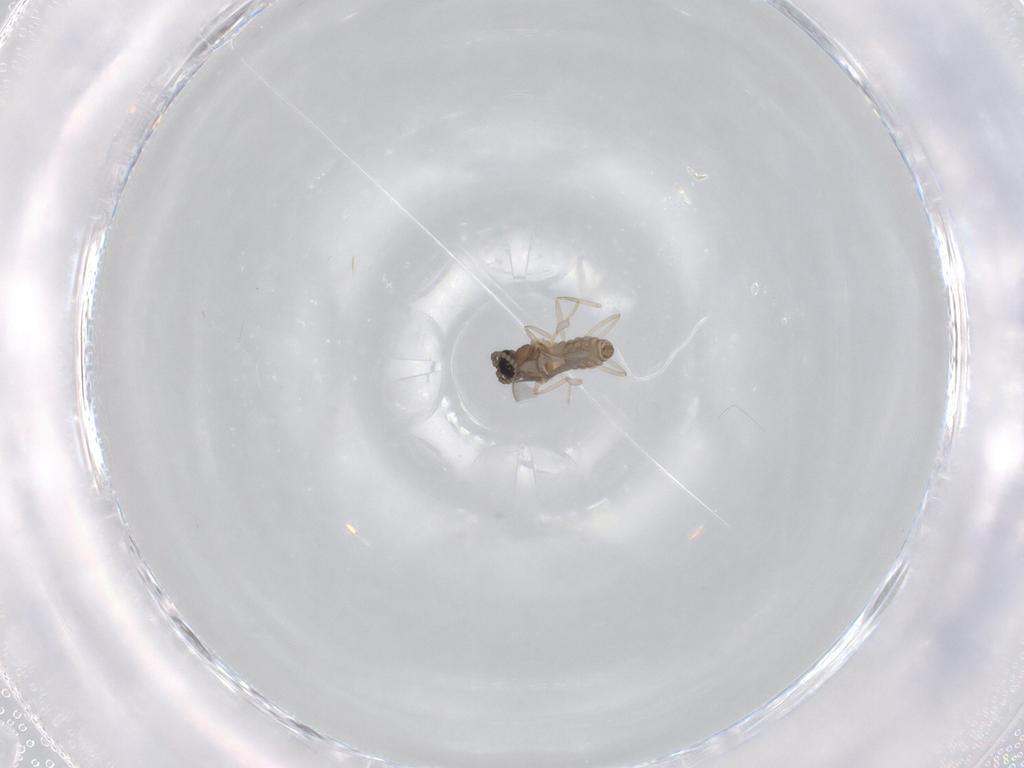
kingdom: Animalia
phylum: Arthropoda
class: Insecta
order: Diptera
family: Cecidomyiidae
